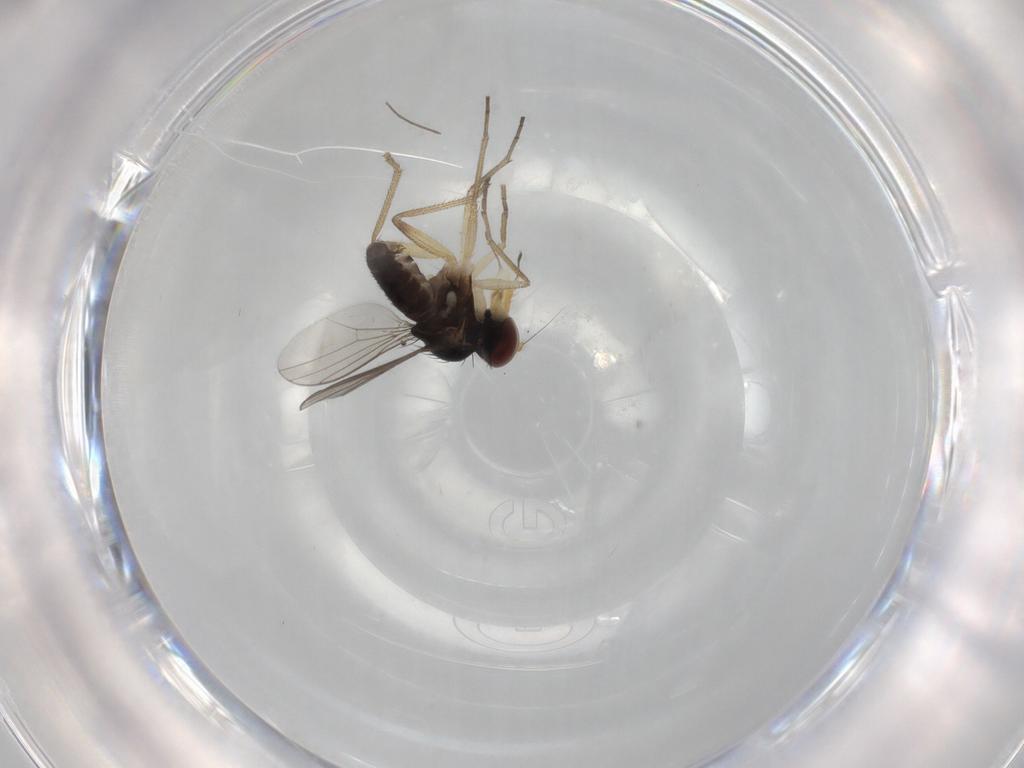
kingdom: Animalia
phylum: Arthropoda
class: Insecta
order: Diptera
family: Dolichopodidae
